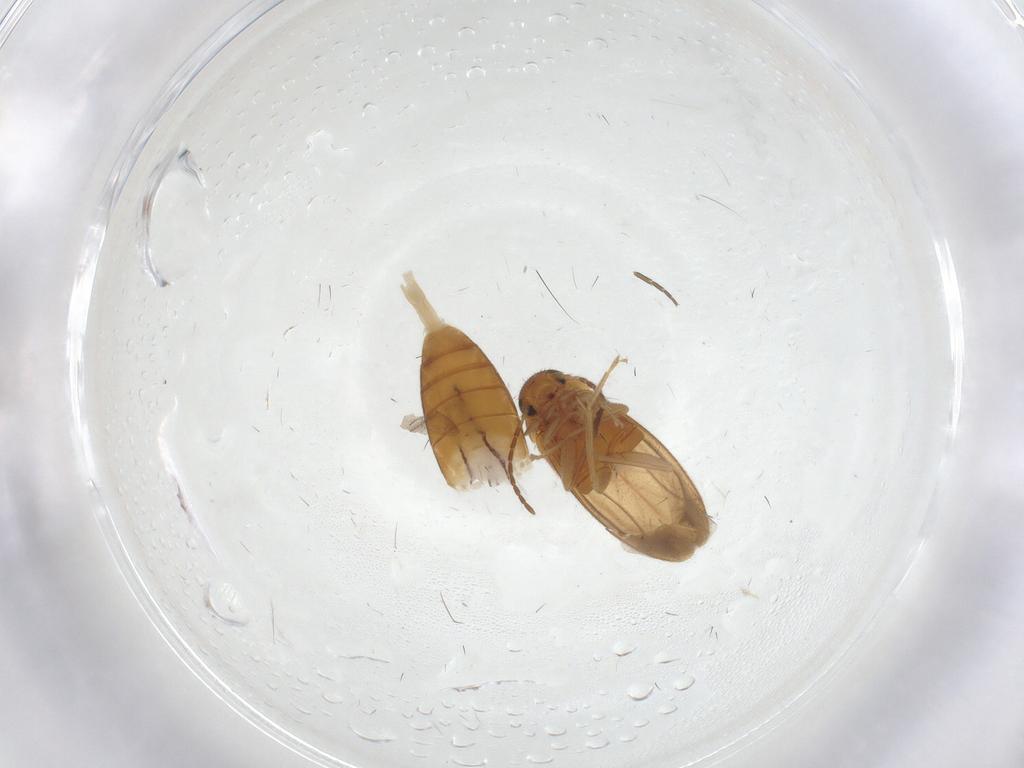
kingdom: Animalia
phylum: Arthropoda
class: Insecta
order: Coleoptera
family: Scraptiidae
